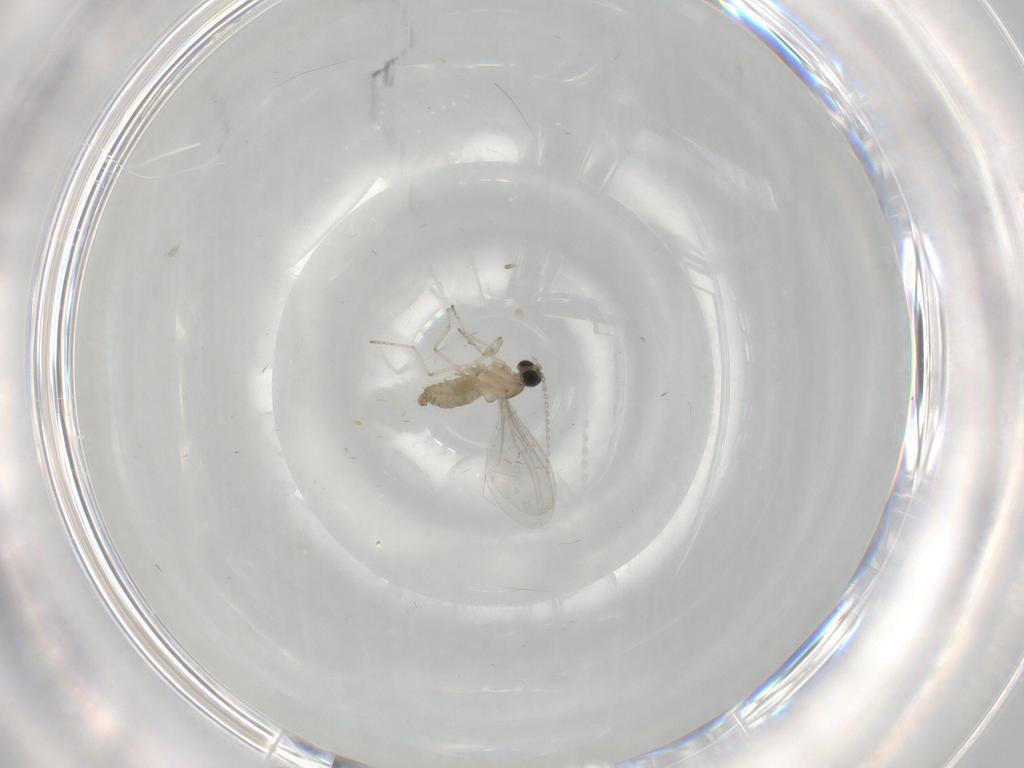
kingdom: Animalia
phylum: Arthropoda
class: Insecta
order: Diptera
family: Cecidomyiidae
